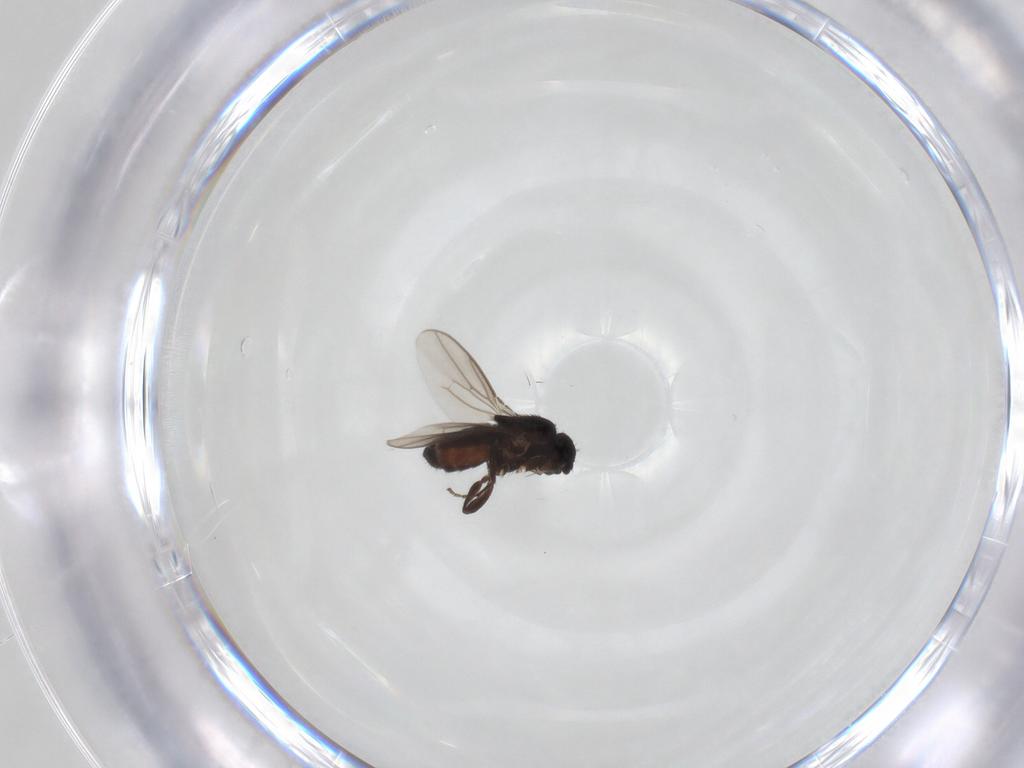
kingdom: Animalia
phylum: Arthropoda
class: Insecta
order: Diptera
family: Sphaeroceridae
